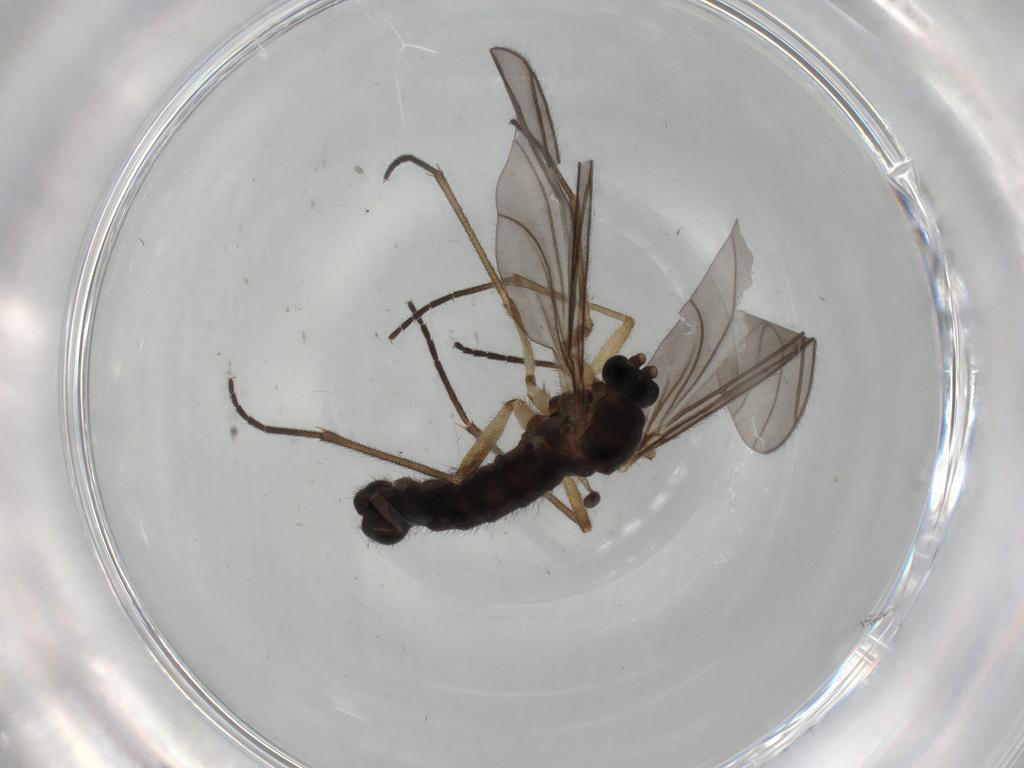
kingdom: Animalia
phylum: Arthropoda
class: Insecta
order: Diptera
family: Sciaridae
